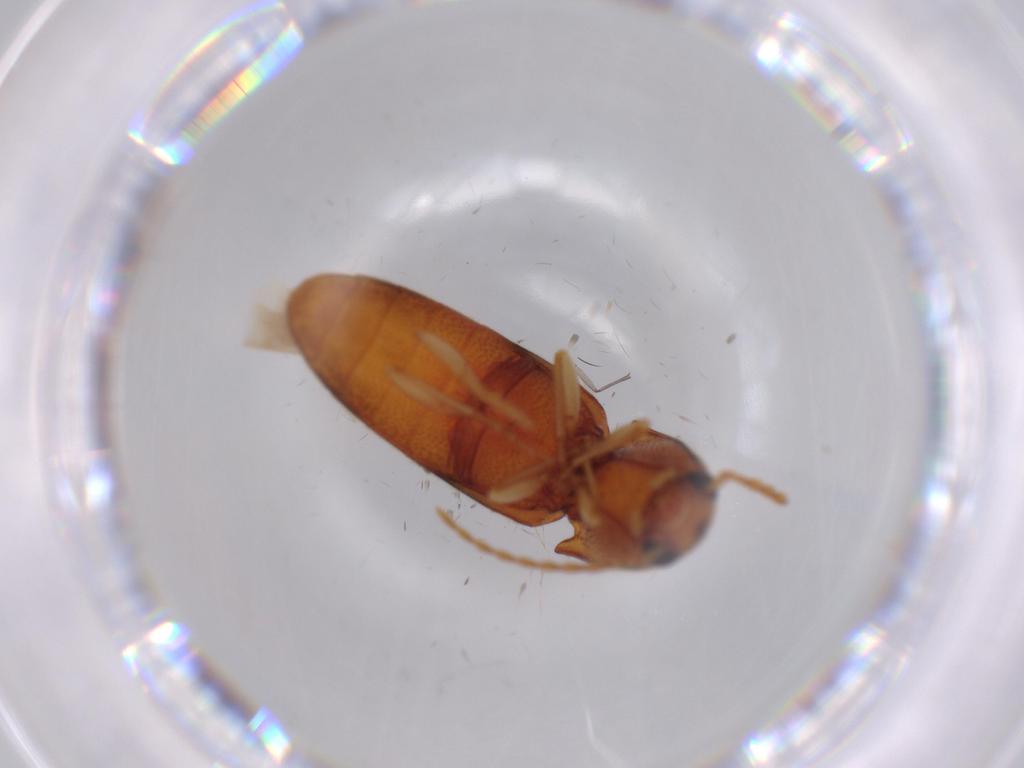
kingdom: Animalia
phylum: Arthropoda
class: Insecta
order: Coleoptera
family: Elateridae
